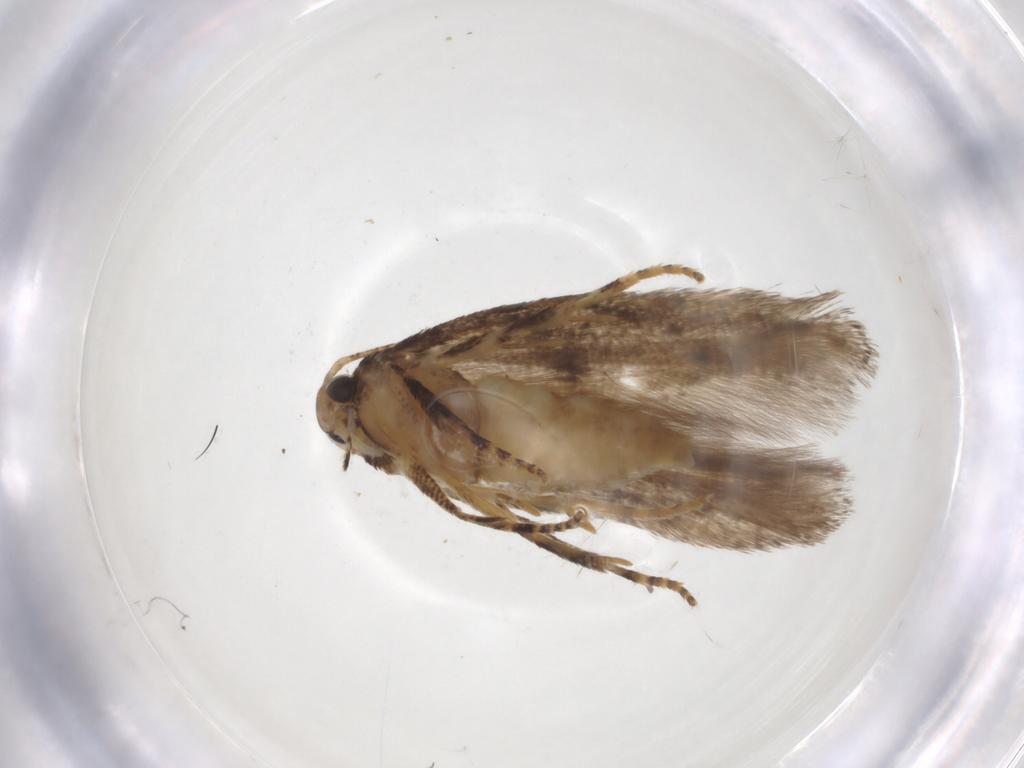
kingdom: Animalia
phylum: Arthropoda
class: Insecta
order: Lepidoptera
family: Gelechiidae
